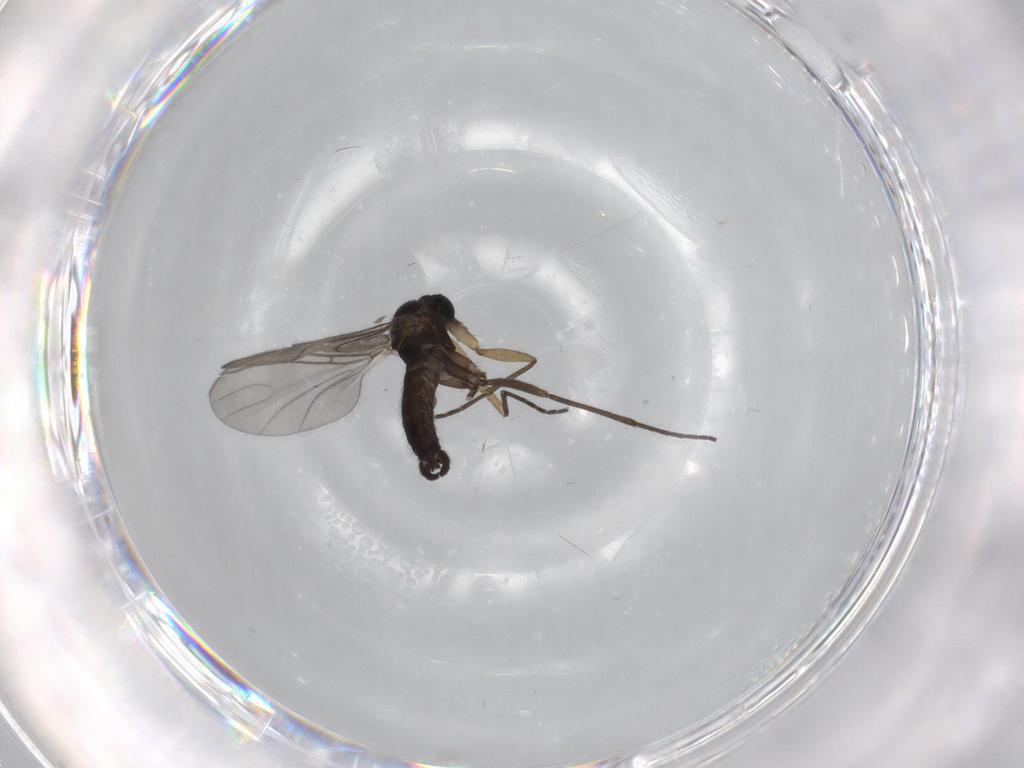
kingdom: Animalia
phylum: Arthropoda
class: Insecta
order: Diptera
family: Sciaridae
